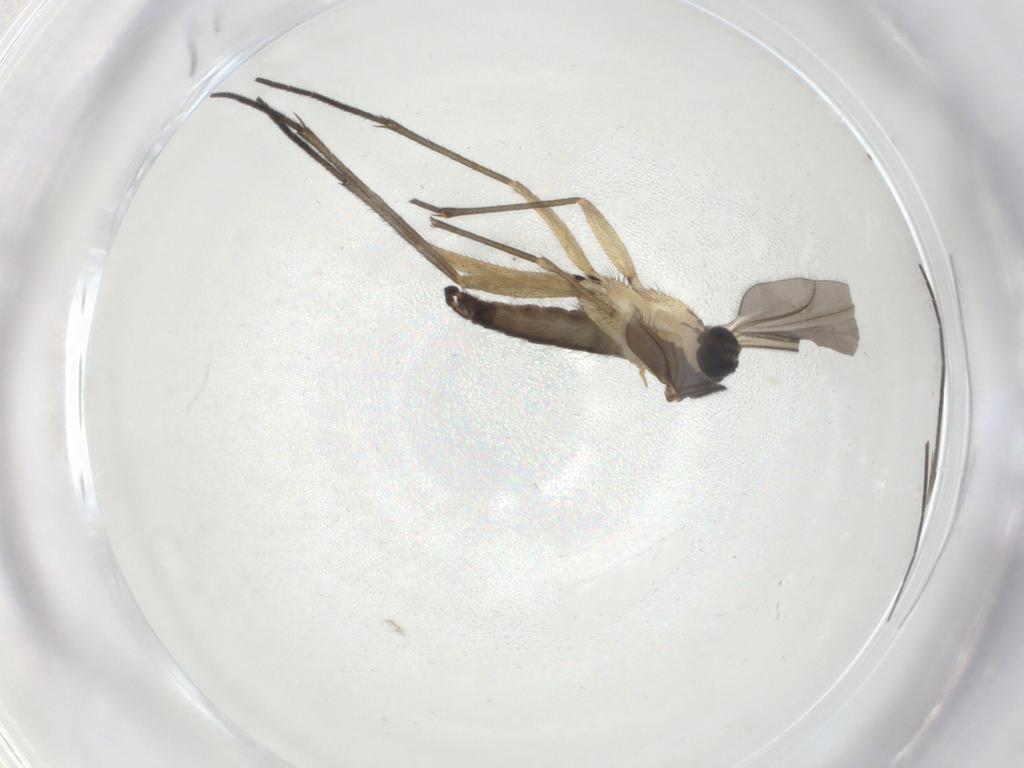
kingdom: Animalia
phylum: Arthropoda
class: Insecta
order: Diptera
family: Sciaridae
